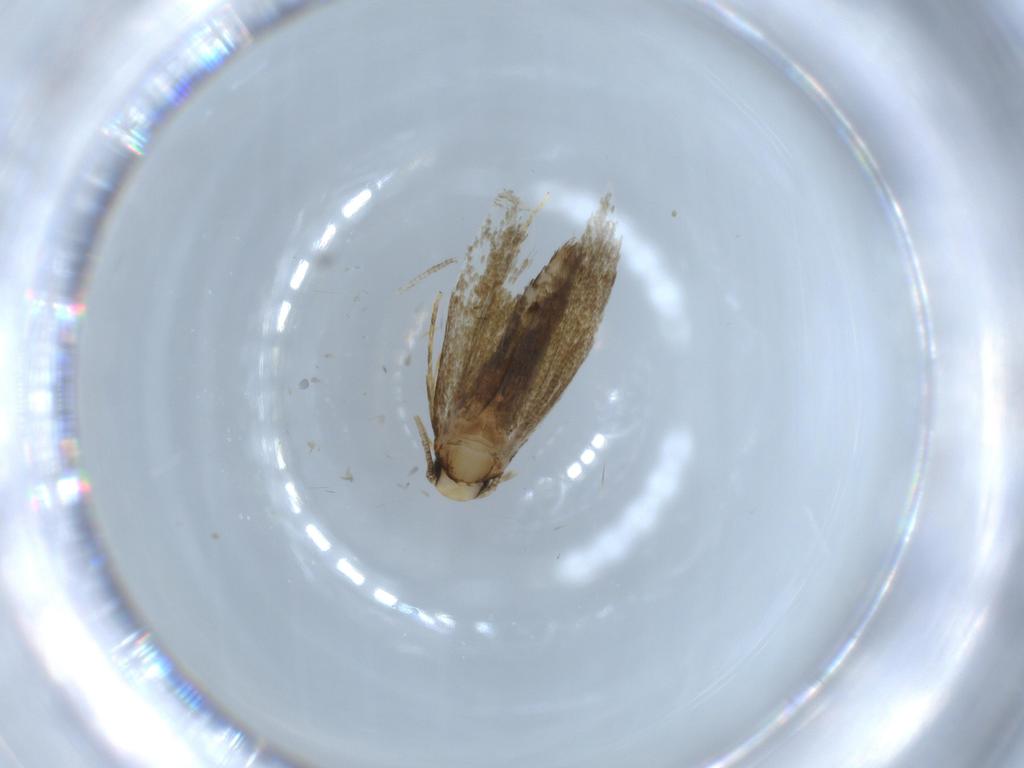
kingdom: Animalia
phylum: Arthropoda
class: Insecta
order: Lepidoptera
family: Tineidae
